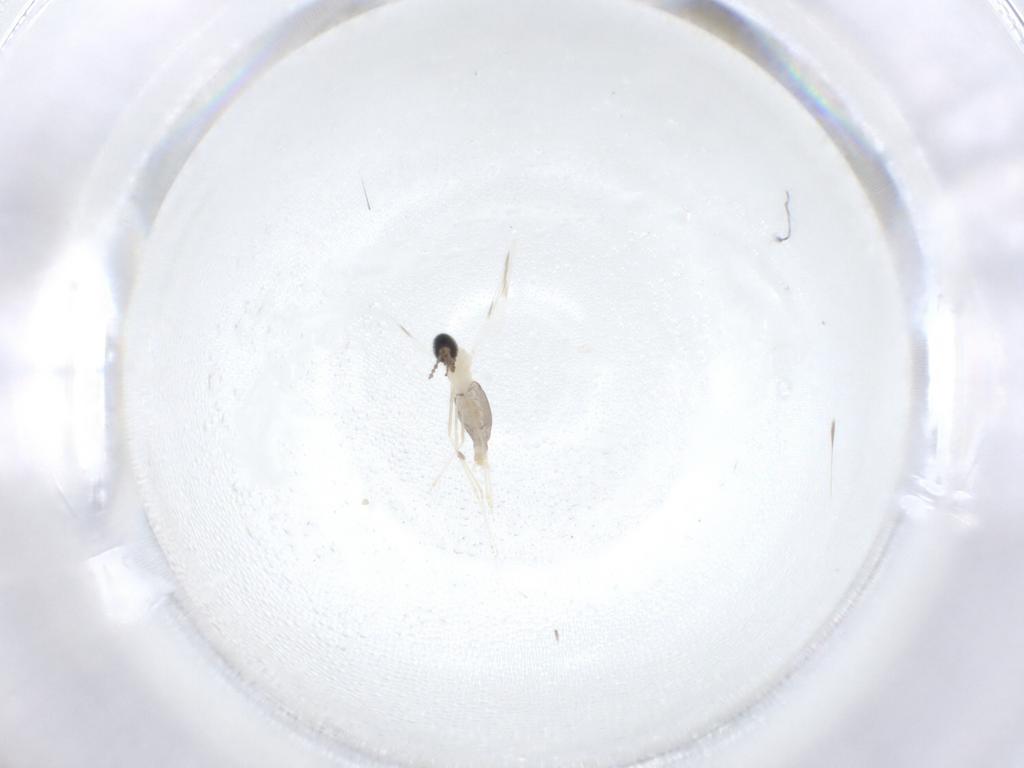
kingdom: Animalia
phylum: Arthropoda
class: Insecta
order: Diptera
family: Cecidomyiidae
